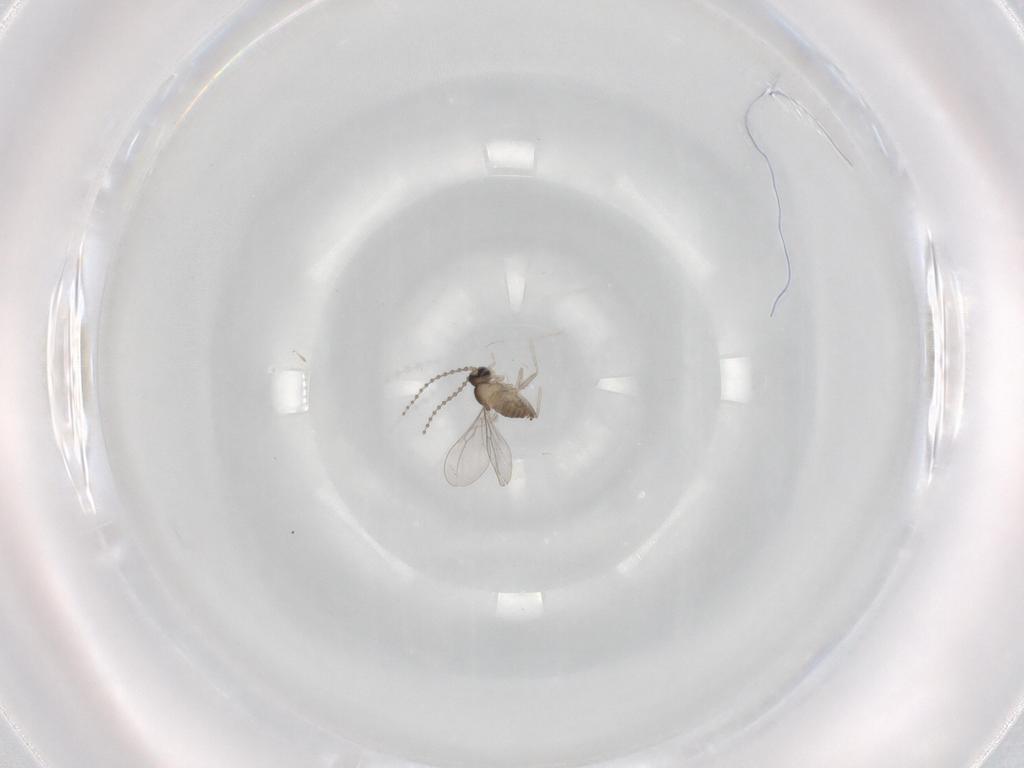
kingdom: Animalia
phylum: Arthropoda
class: Insecta
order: Diptera
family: Cecidomyiidae
